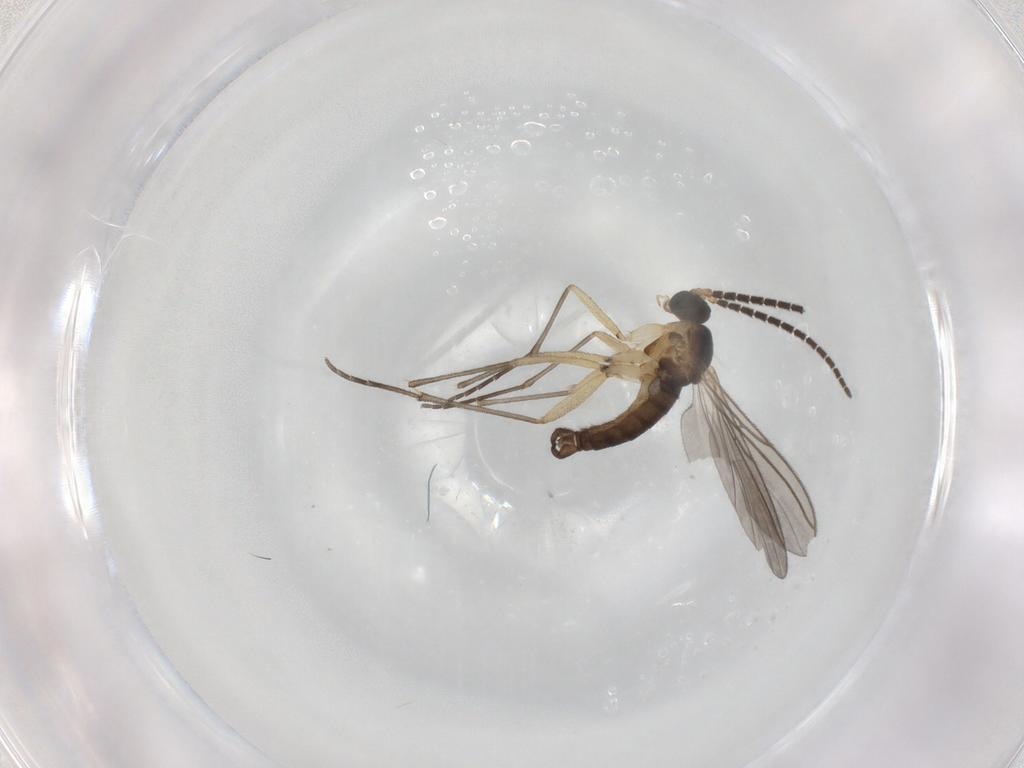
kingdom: Animalia
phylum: Arthropoda
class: Insecta
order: Diptera
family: Sciaridae
